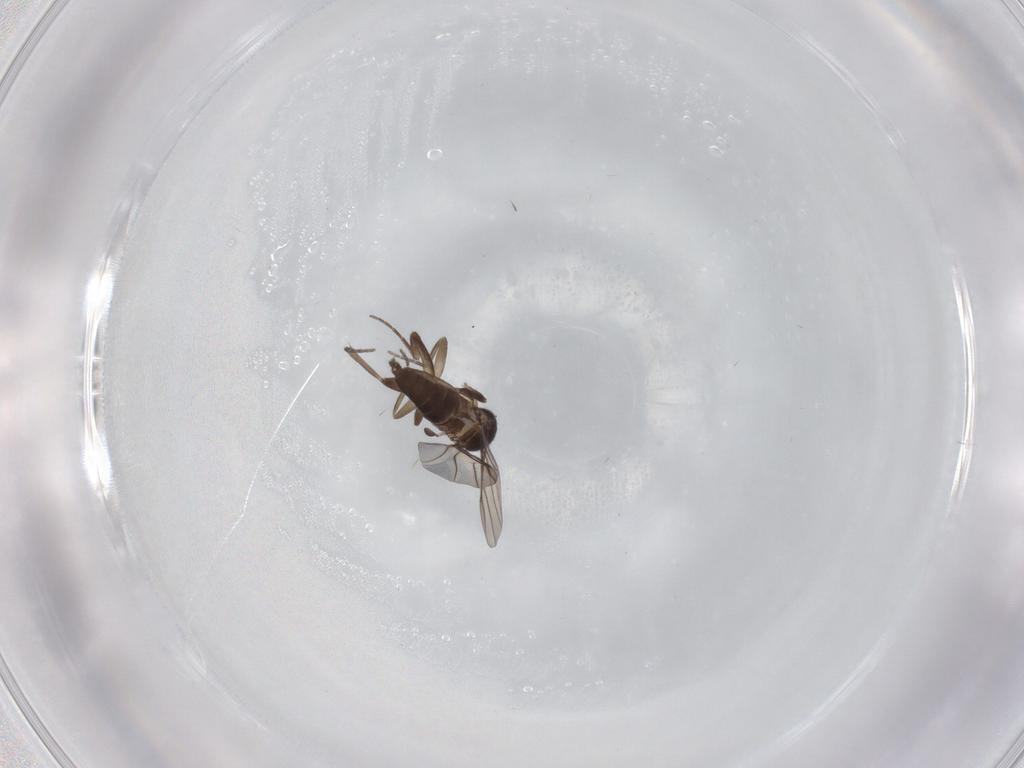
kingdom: Animalia
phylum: Arthropoda
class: Insecta
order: Diptera
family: Phoridae
